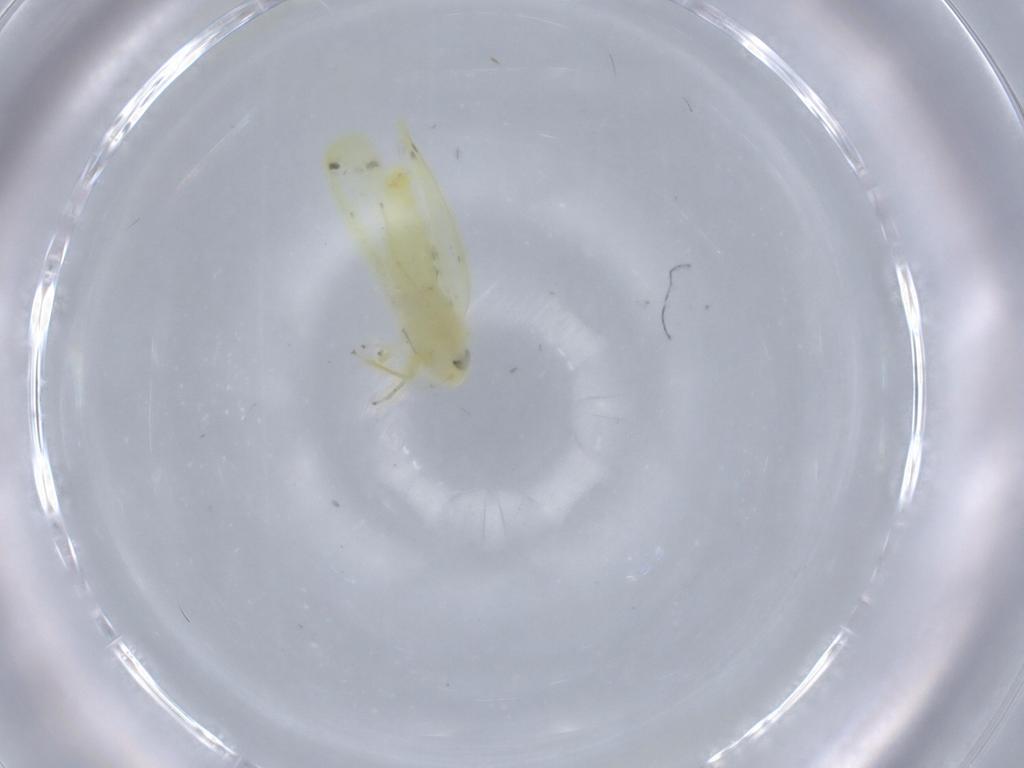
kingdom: Animalia
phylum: Arthropoda
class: Insecta
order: Hemiptera
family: Cicadellidae
